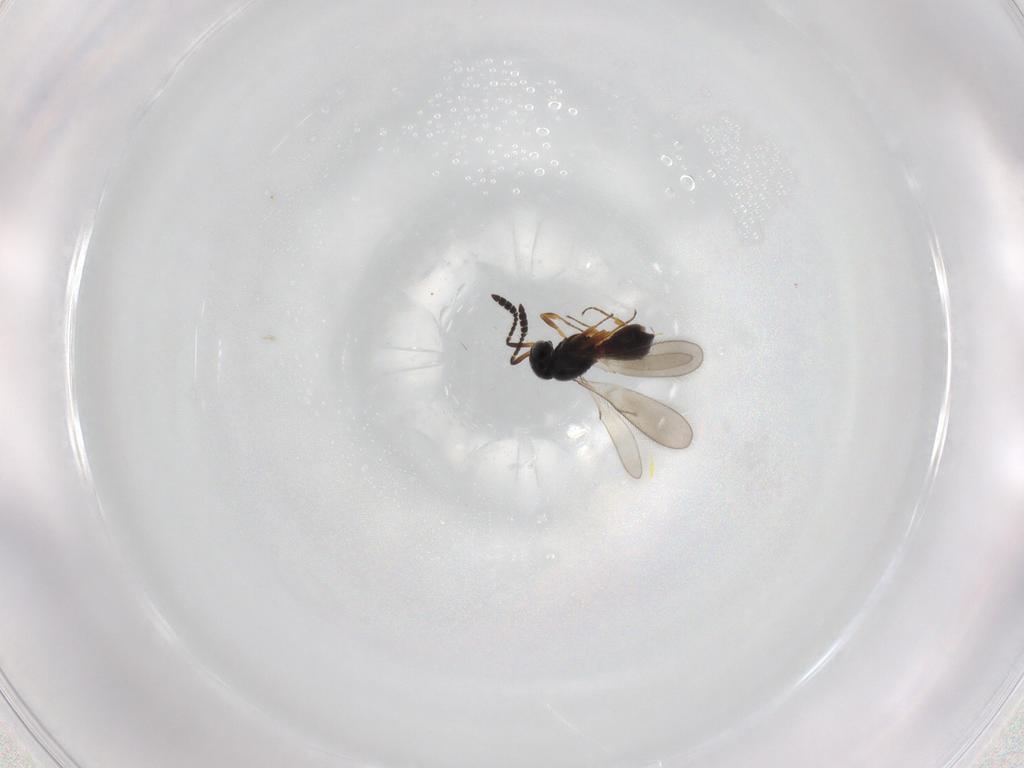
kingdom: Animalia
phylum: Arthropoda
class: Insecta
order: Hymenoptera
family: Scelionidae
